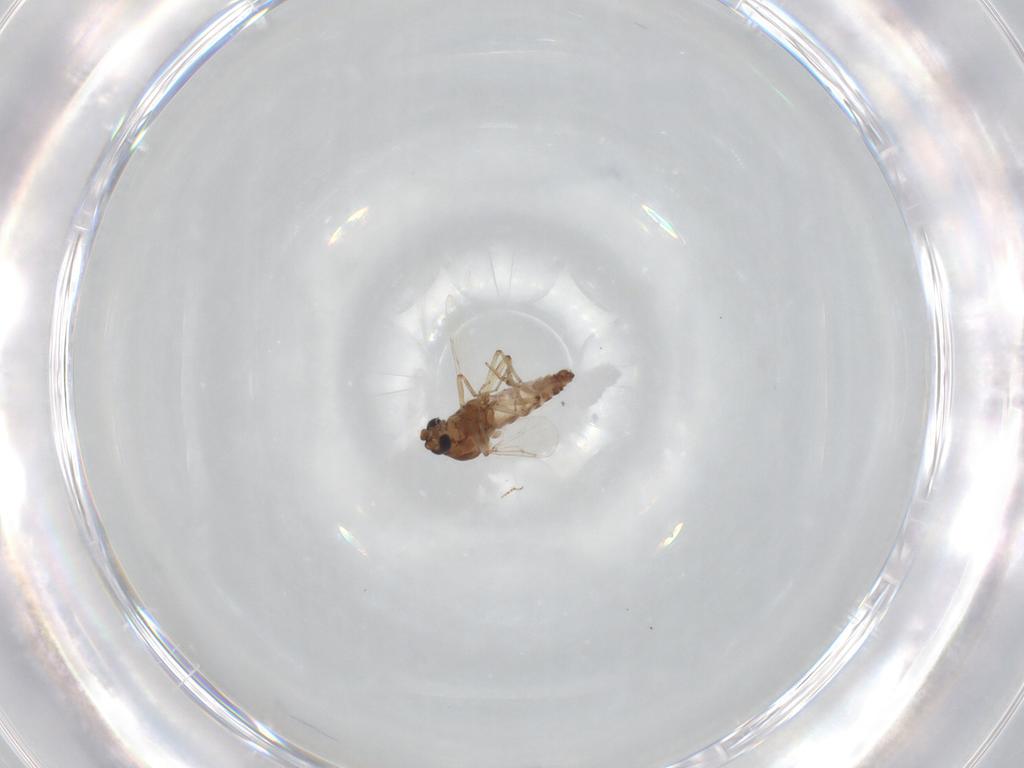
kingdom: Animalia
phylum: Arthropoda
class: Insecta
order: Diptera
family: Ceratopogonidae
